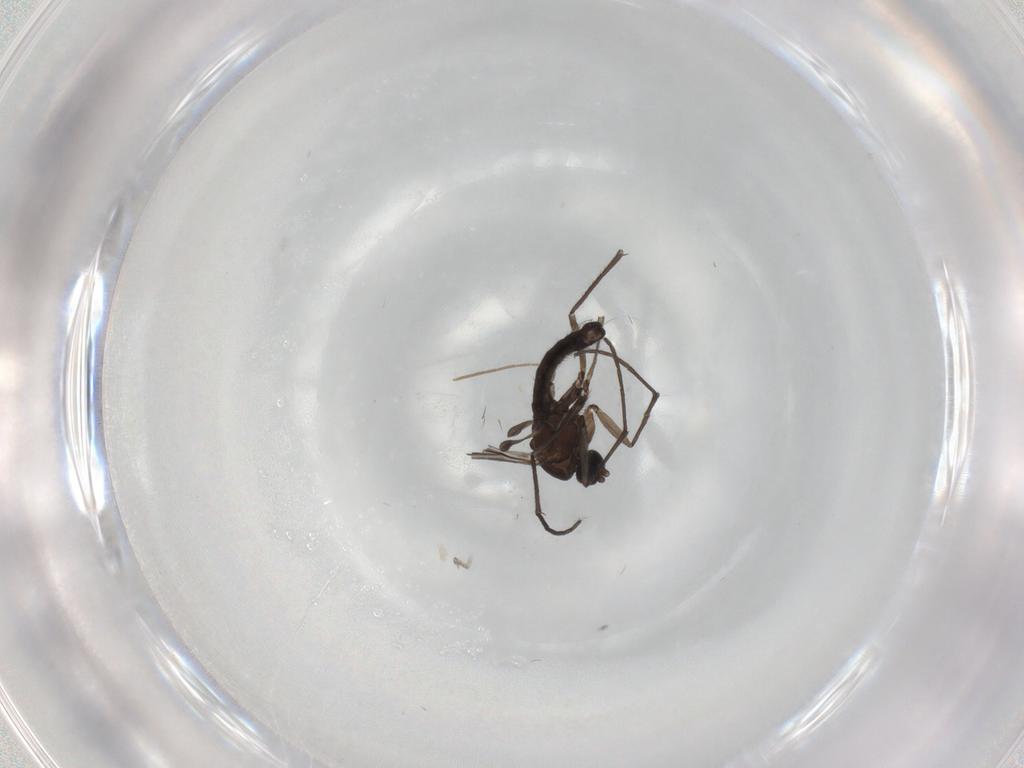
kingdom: Animalia
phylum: Arthropoda
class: Insecta
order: Diptera
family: Sciaridae
